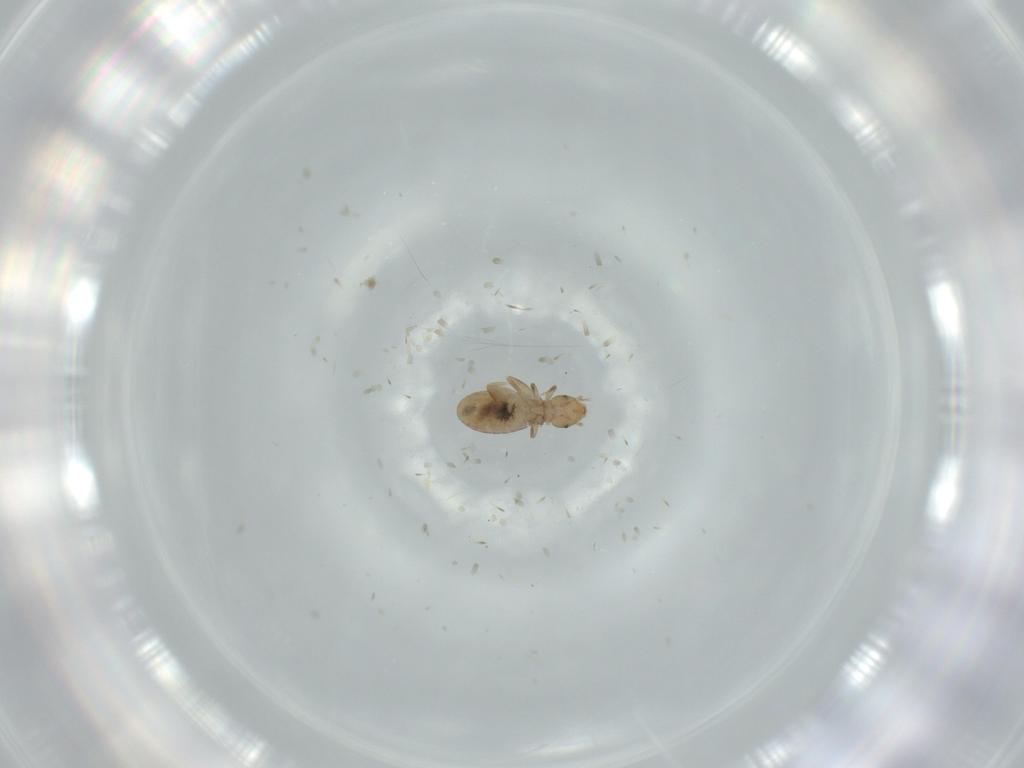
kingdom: Animalia
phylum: Arthropoda
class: Insecta
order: Psocodea
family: Liposcelididae
